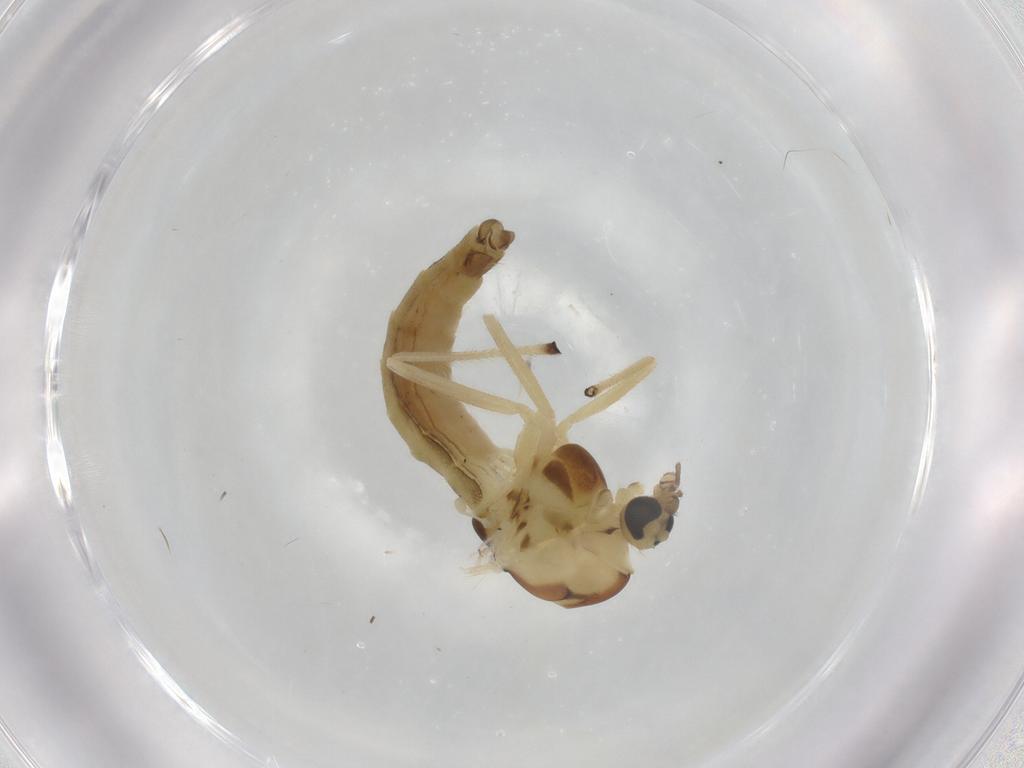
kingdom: Animalia
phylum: Arthropoda
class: Insecta
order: Diptera
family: Chironomidae
